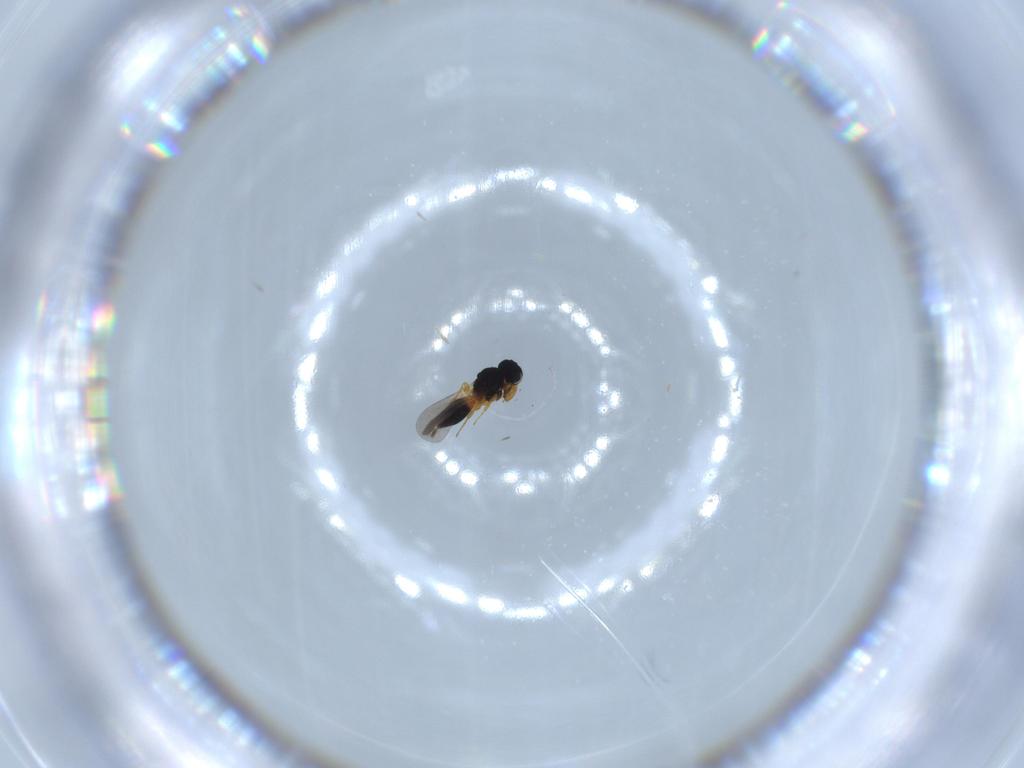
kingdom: Animalia
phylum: Arthropoda
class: Insecta
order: Hymenoptera
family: Platygastridae
